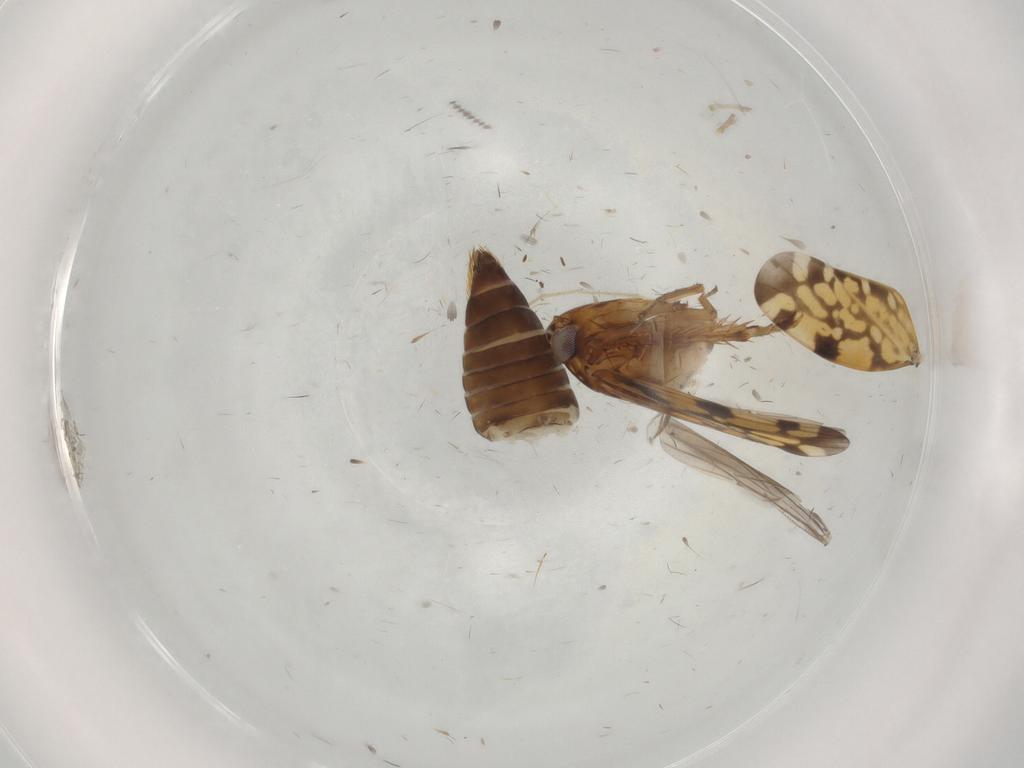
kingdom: Animalia
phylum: Arthropoda
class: Insecta
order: Hemiptera
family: Cicadellidae
